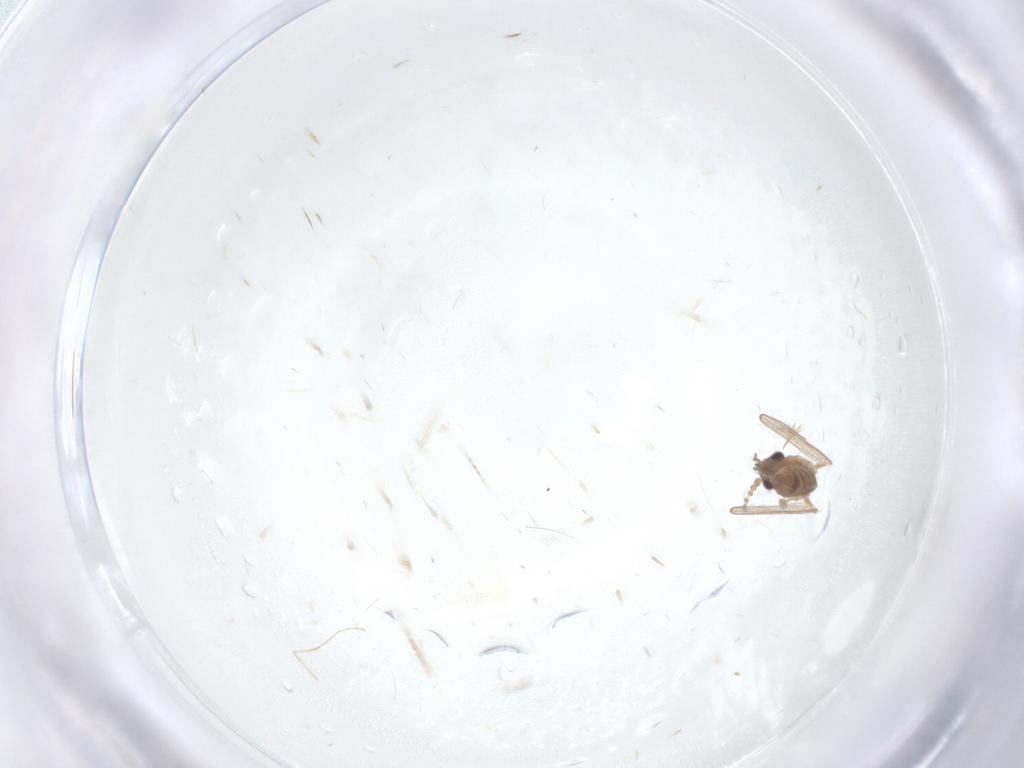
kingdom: Animalia
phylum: Arthropoda
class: Insecta
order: Diptera
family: Psychodidae
